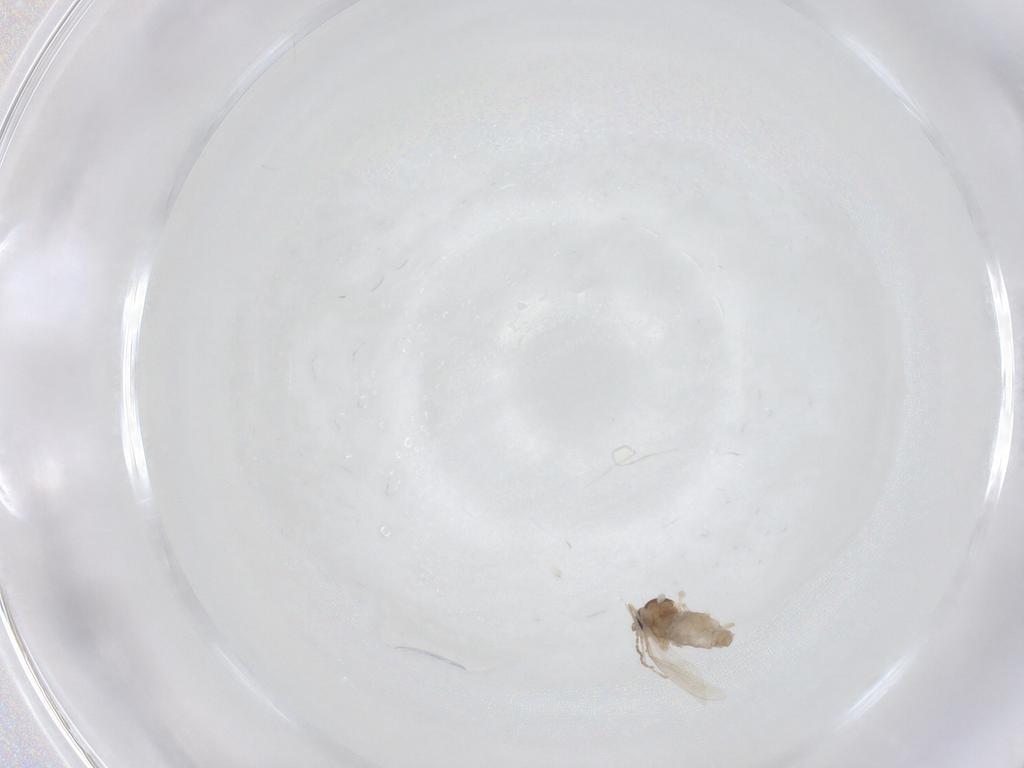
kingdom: Animalia
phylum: Arthropoda
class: Insecta
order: Diptera
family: Cecidomyiidae
